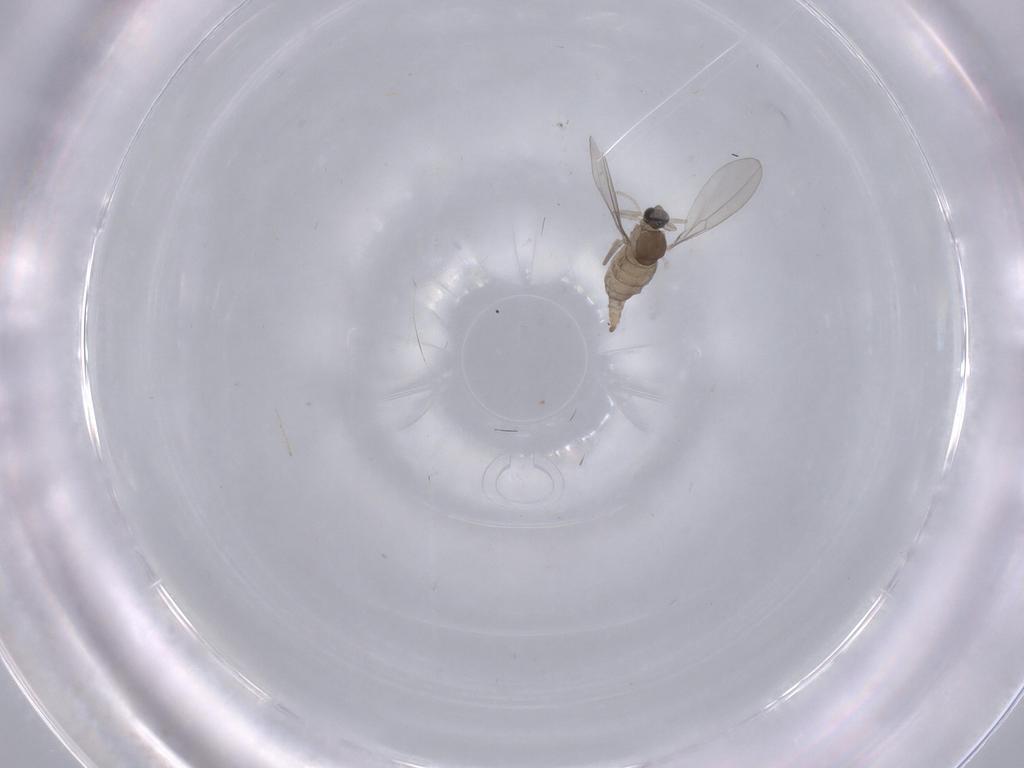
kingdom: Animalia
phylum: Arthropoda
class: Insecta
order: Diptera
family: Cecidomyiidae
